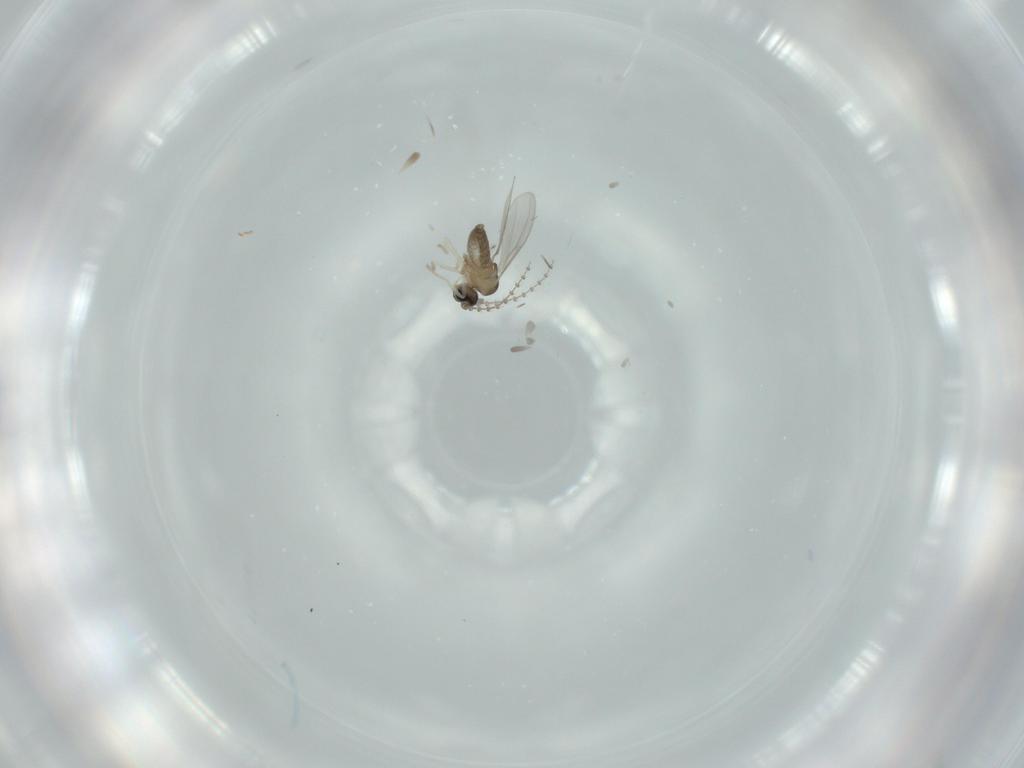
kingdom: Animalia
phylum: Arthropoda
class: Insecta
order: Diptera
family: Cecidomyiidae
